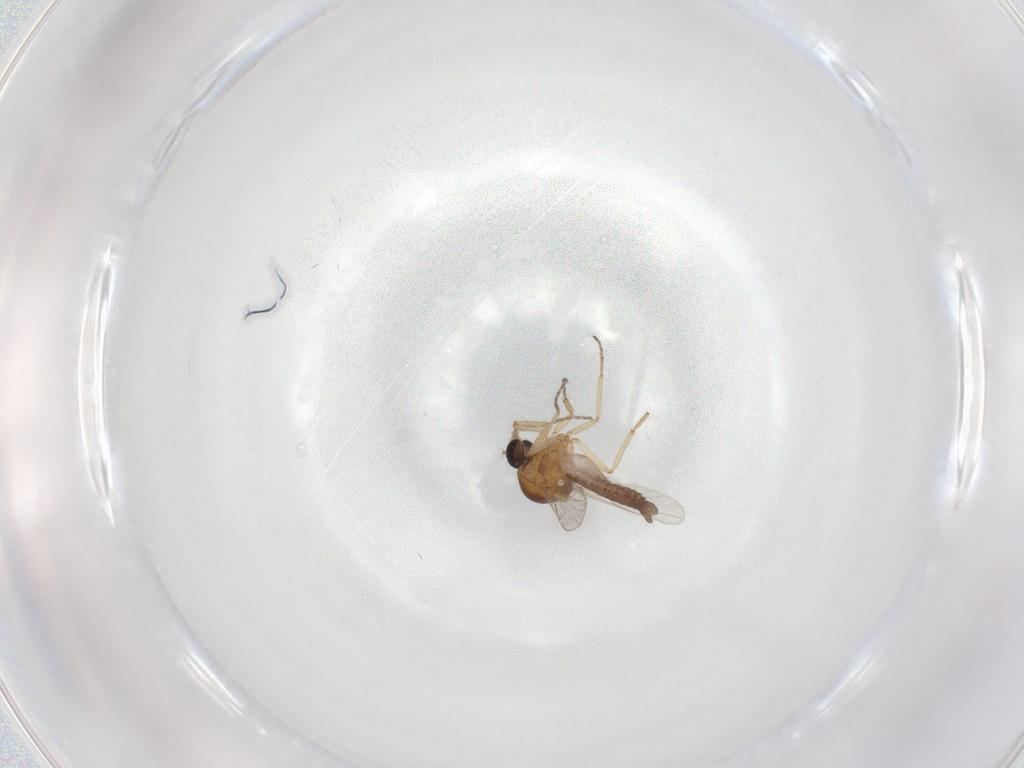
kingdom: Animalia
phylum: Arthropoda
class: Insecta
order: Diptera
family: Ceratopogonidae
